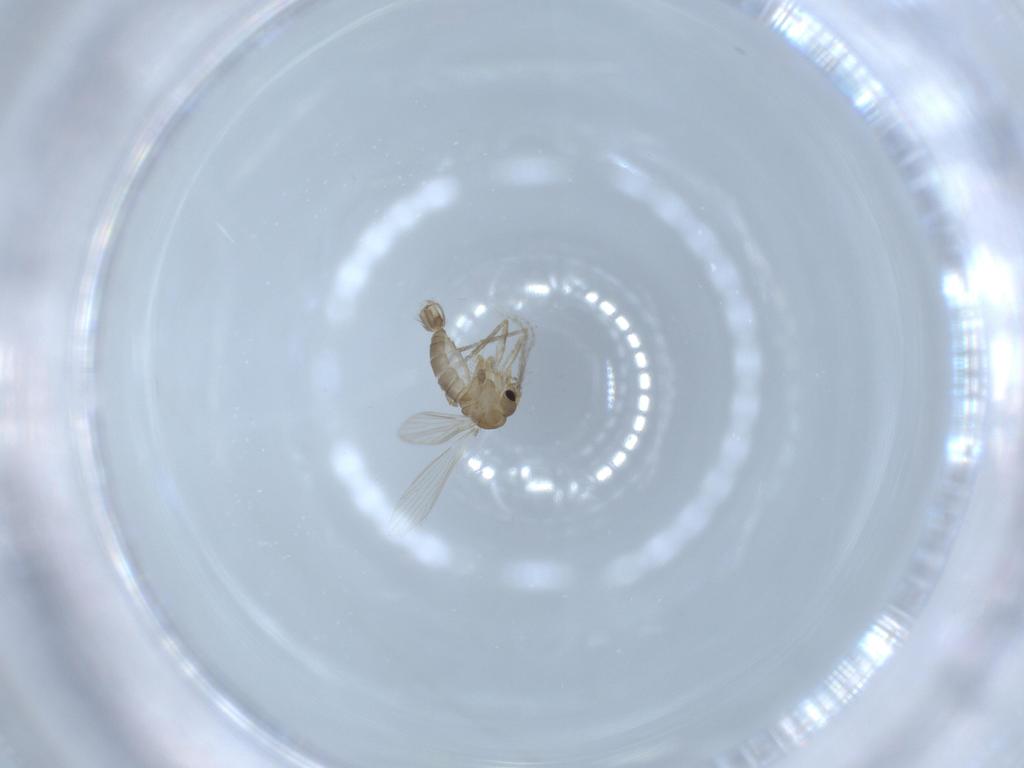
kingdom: Animalia
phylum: Arthropoda
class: Insecta
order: Diptera
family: Psychodidae
